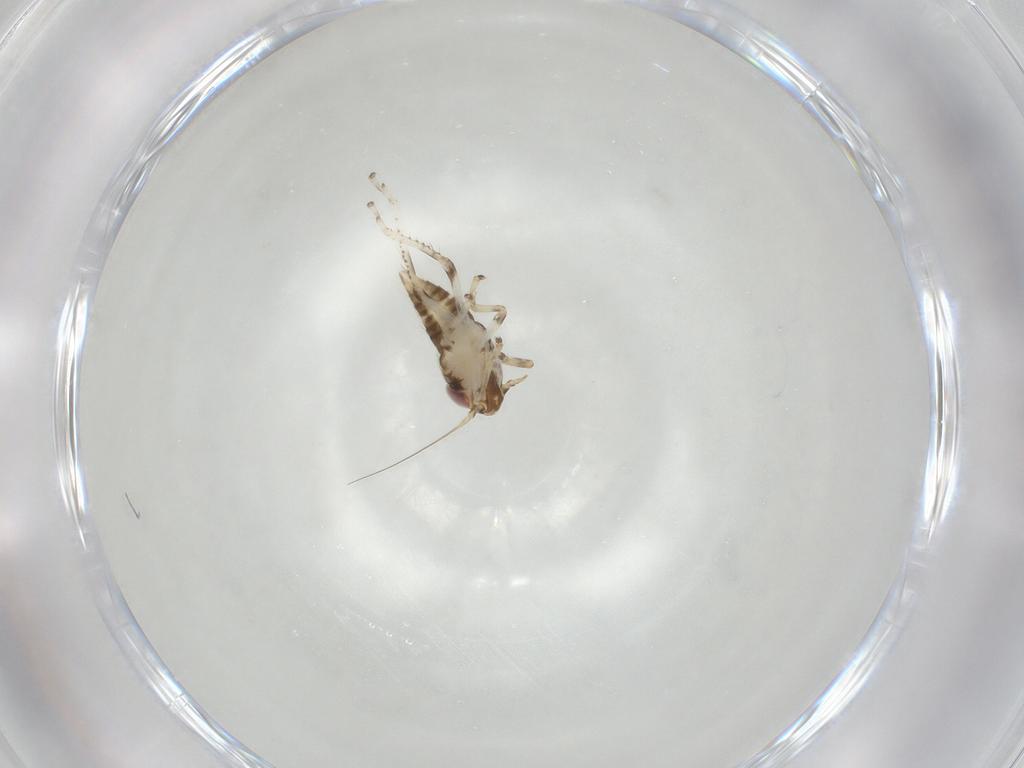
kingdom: Animalia
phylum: Arthropoda
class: Insecta
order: Hemiptera
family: Cicadellidae
